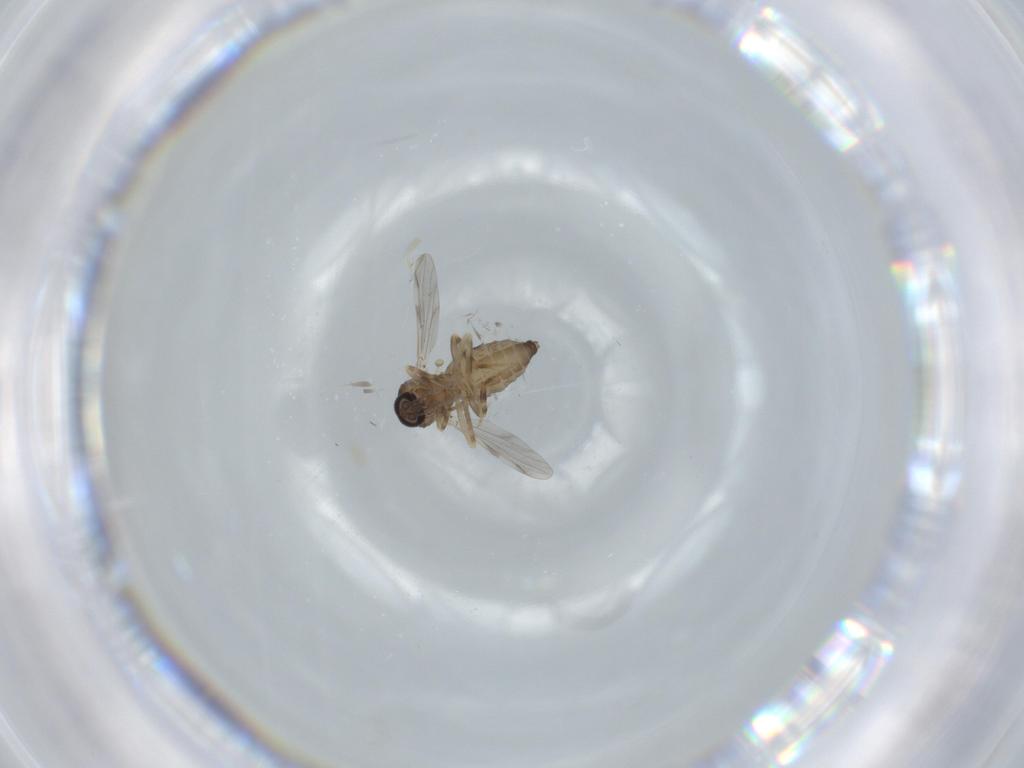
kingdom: Animalia
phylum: Arthropoda
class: Insecta
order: Diptera
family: Ceratopogonidae
